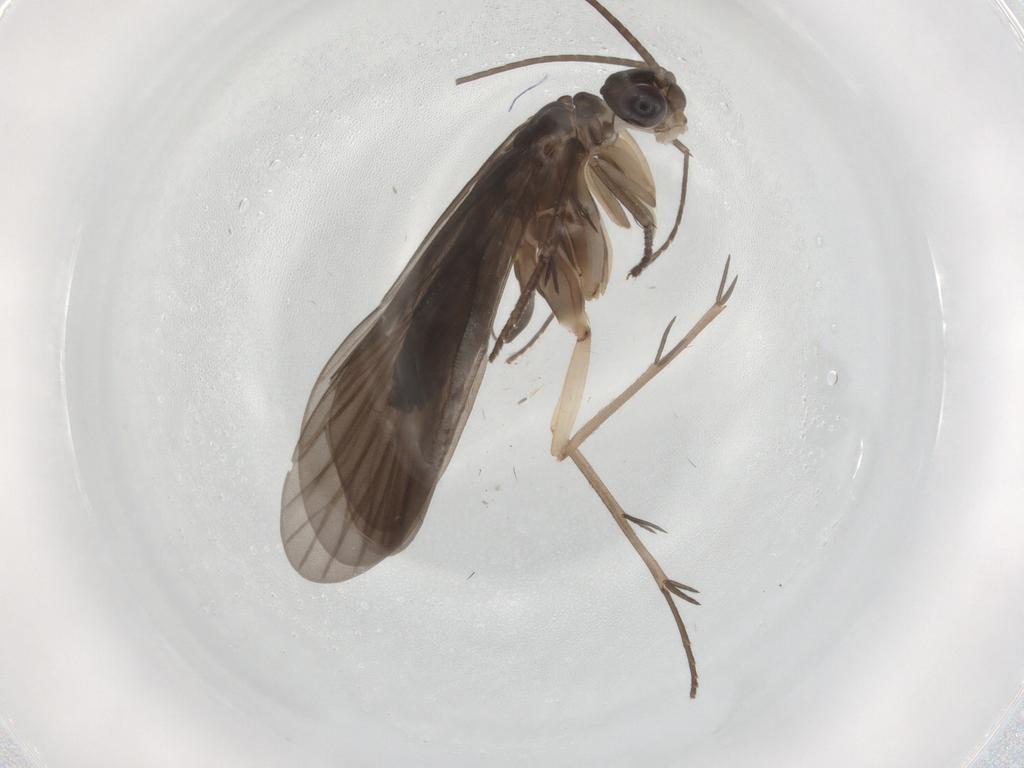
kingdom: Animalia
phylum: Arthropoda
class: Insecta
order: Trichoptera
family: Philopotamidae
